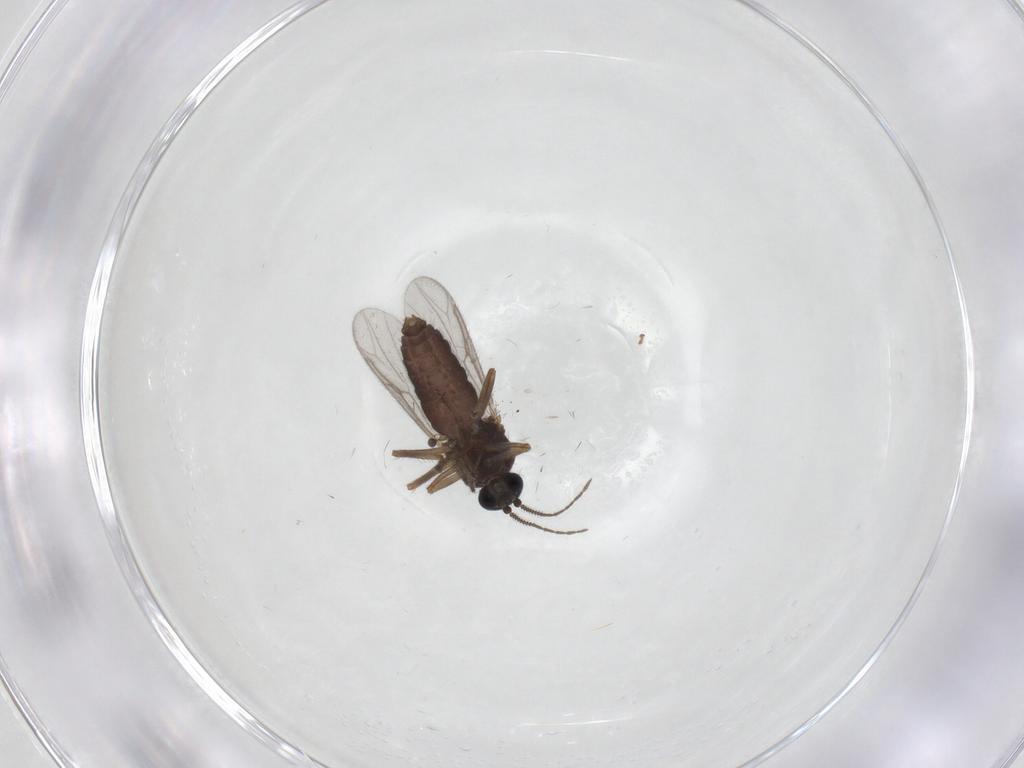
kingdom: Animalia
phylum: Arthropoda
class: Insecta
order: Diptera
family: Ceratopogonidae
